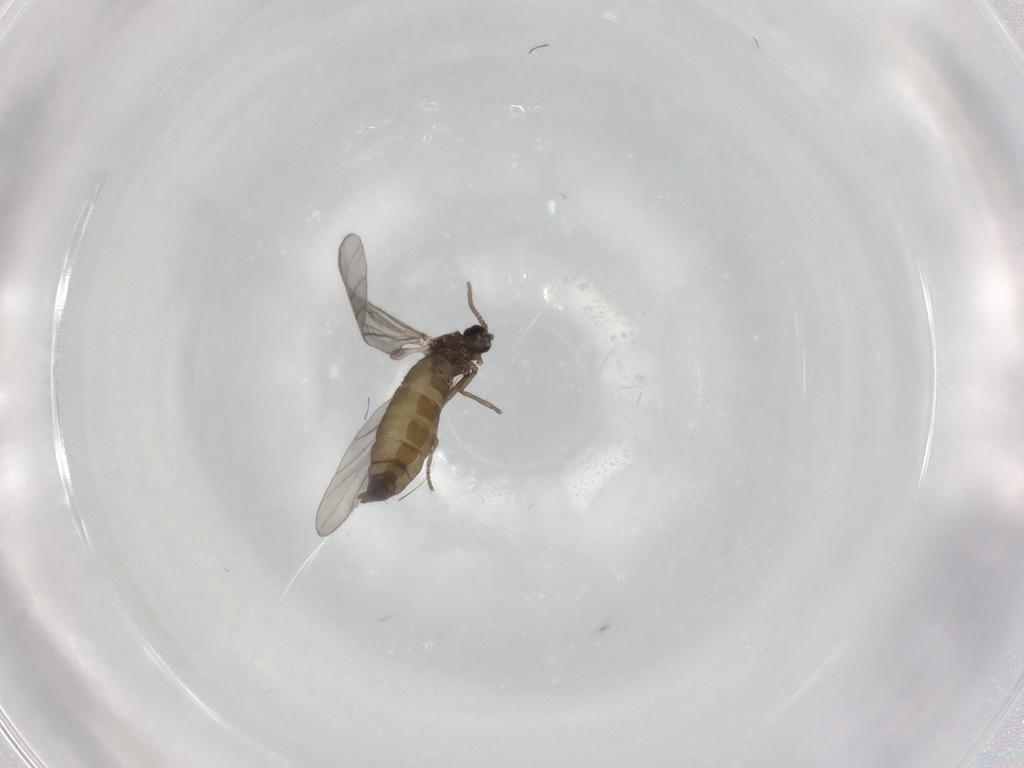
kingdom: Animalia
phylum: Arthropoda
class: Insecta
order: Diptera
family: Sciaridae
